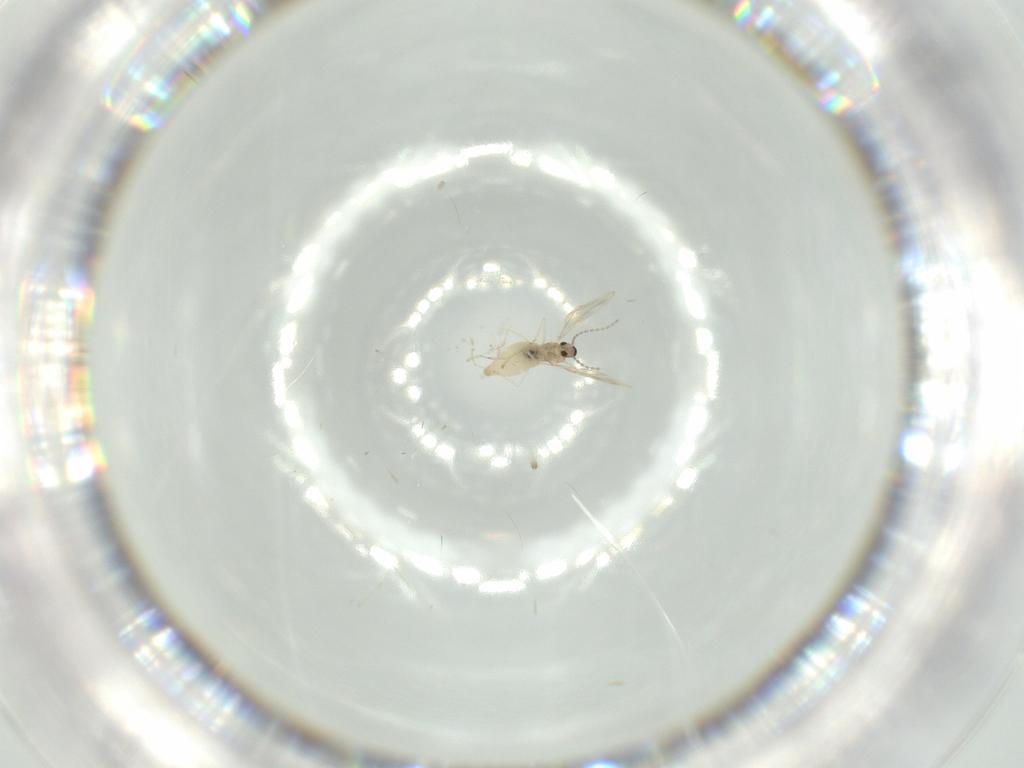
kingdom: Animalia
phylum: Arthropoda
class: Insecta
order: Diptera
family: Cecidomyiidae
